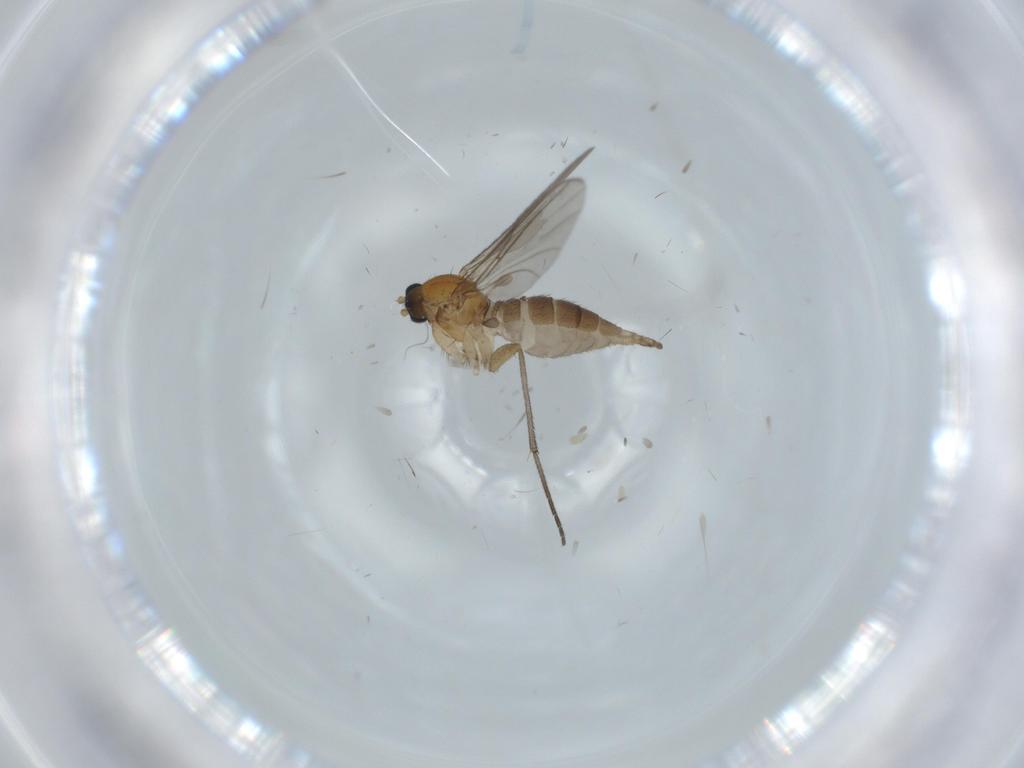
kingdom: Animalia
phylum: Arthropoda
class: Insecta
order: Diptera
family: Sciaridae
